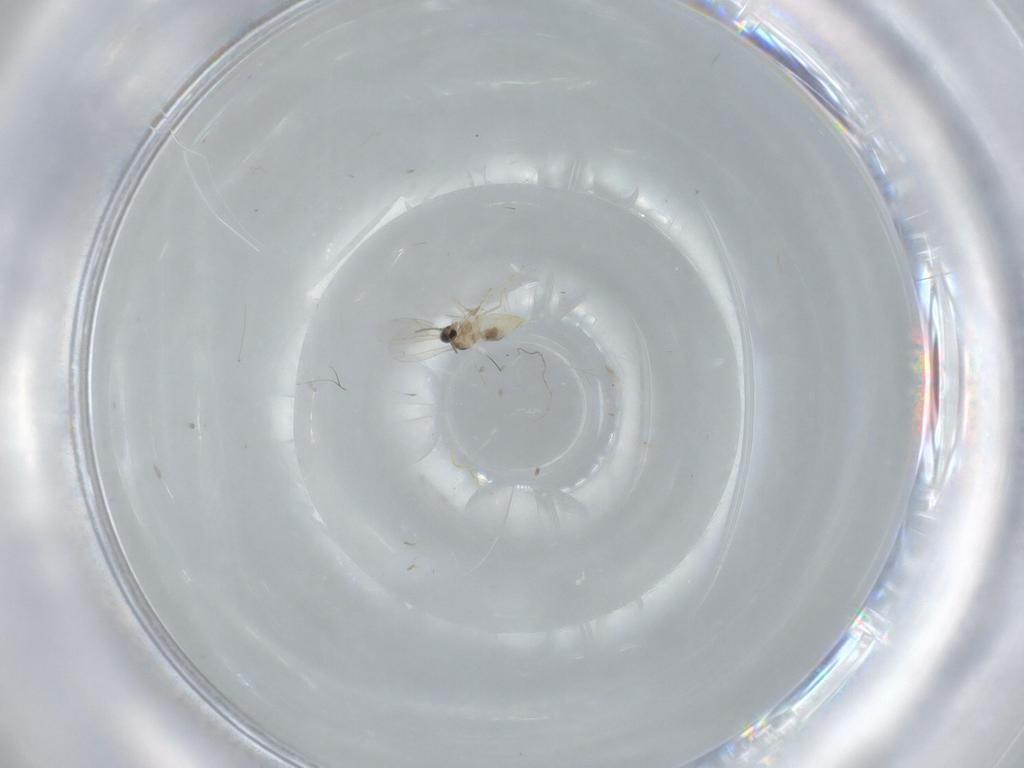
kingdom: Animalia
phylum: Arthropoda
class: Insecta
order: Diptera
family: Cecidomyiidae
